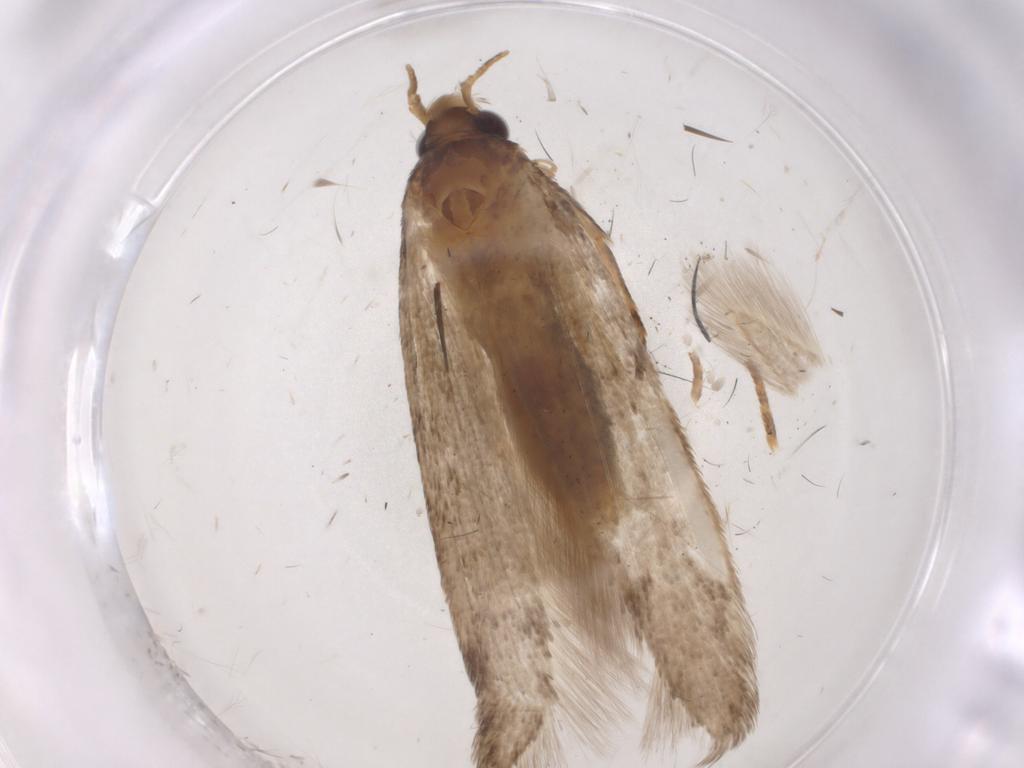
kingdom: Animalia
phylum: Arthropoda
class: Insecta
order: Lepidoptera
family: Coleophoridae
